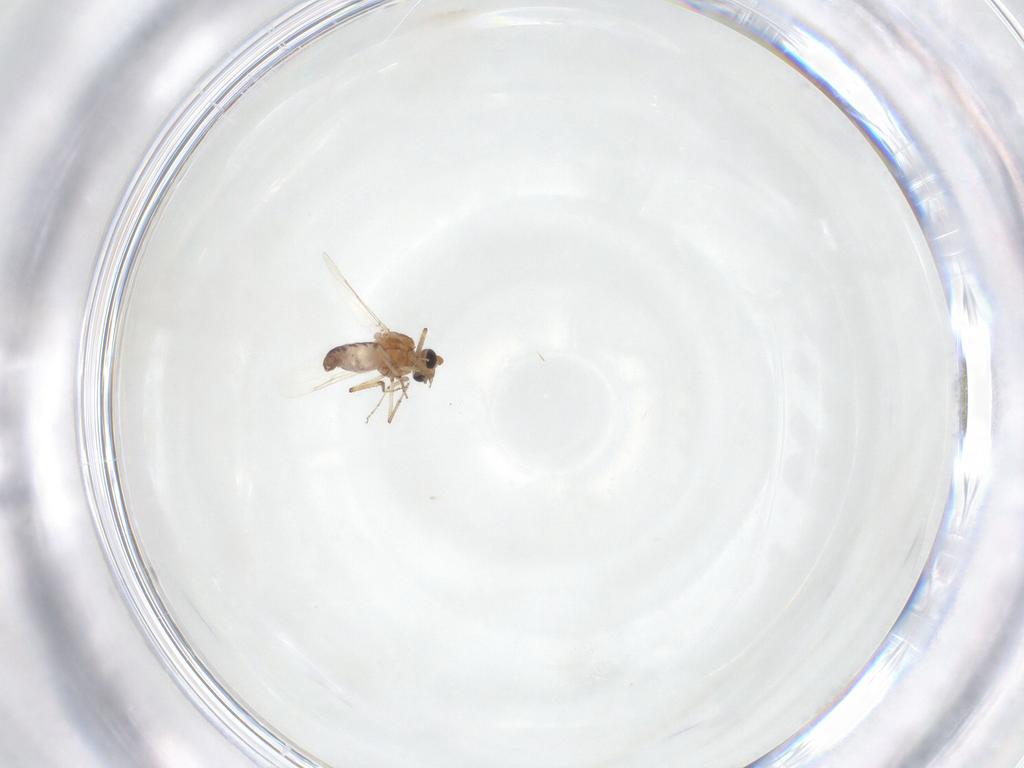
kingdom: Animalia
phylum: Arthropoda
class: Insecta
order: Diptera
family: Ceratopogonidae
